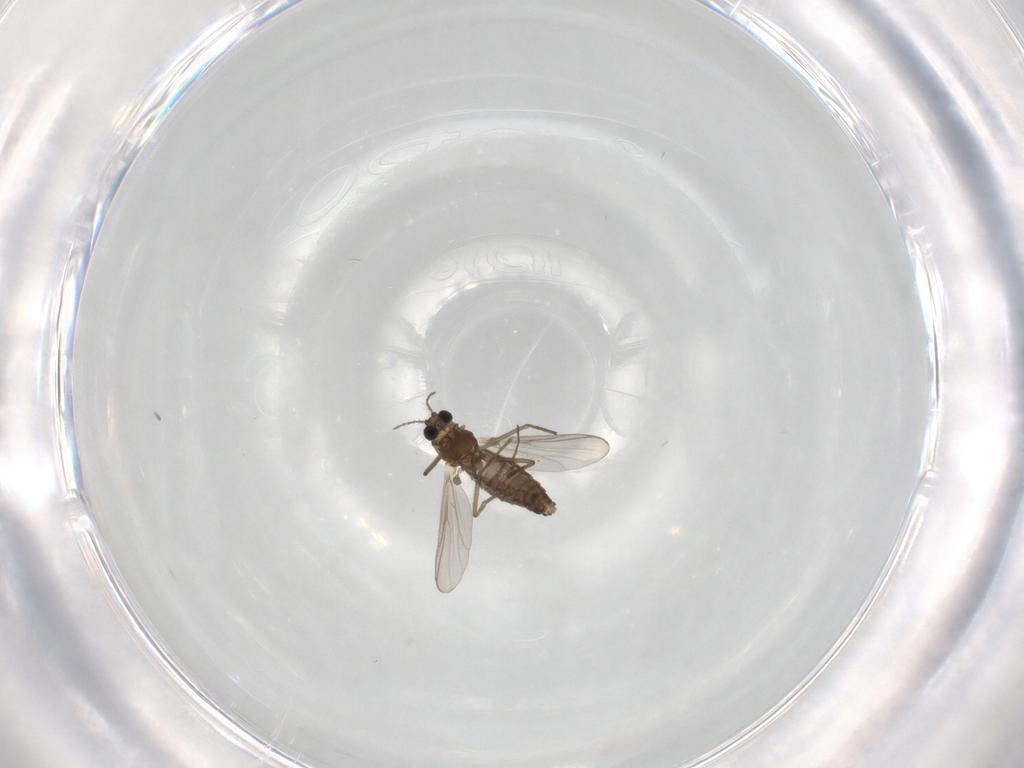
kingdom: Animalia
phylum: Arthropoda
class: Insecta
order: Diptera
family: Chironomidae
